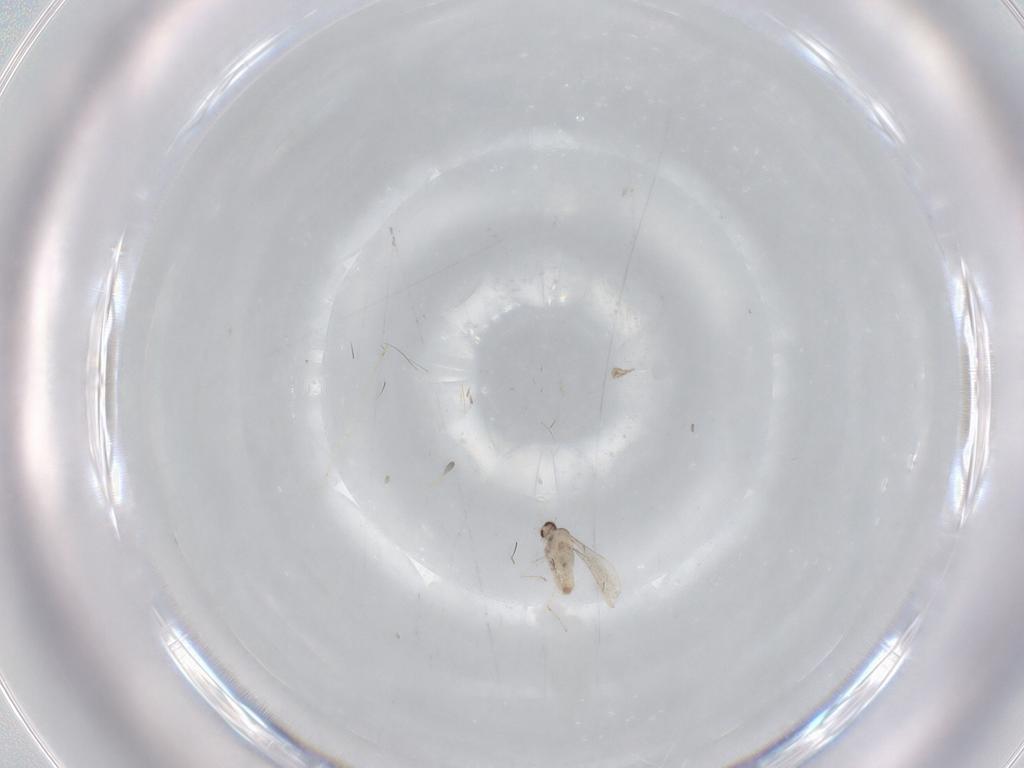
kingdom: Animalia
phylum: Arthropoda
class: Insecta
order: Diptera
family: Cecidomyiidae
